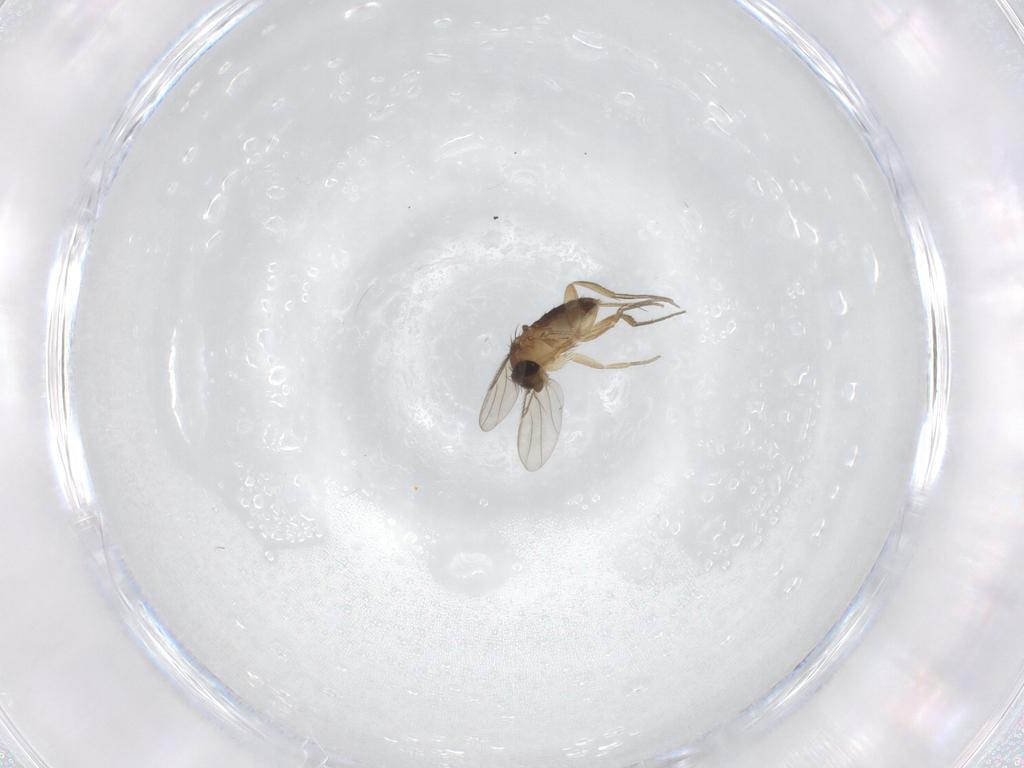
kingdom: Animalia
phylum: Arthropoda
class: Insecta
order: Diptera
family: Phoridae
